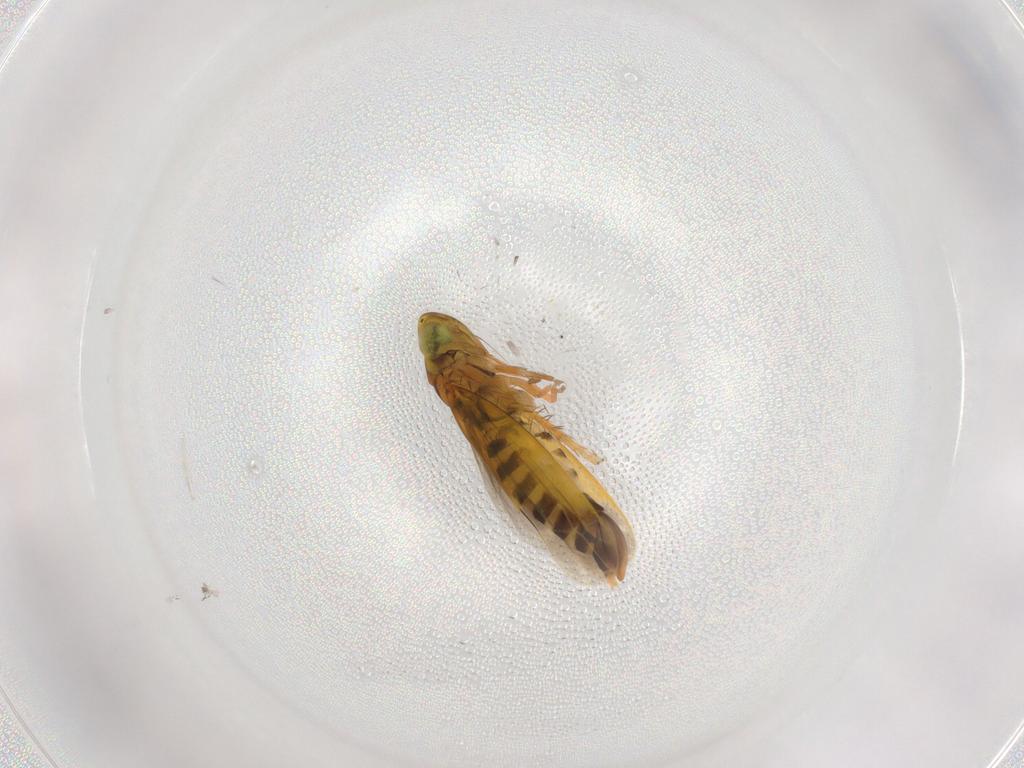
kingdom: Animalia
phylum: Arthropoda
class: Insecta
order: Hemiptera
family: Cicadellidae
